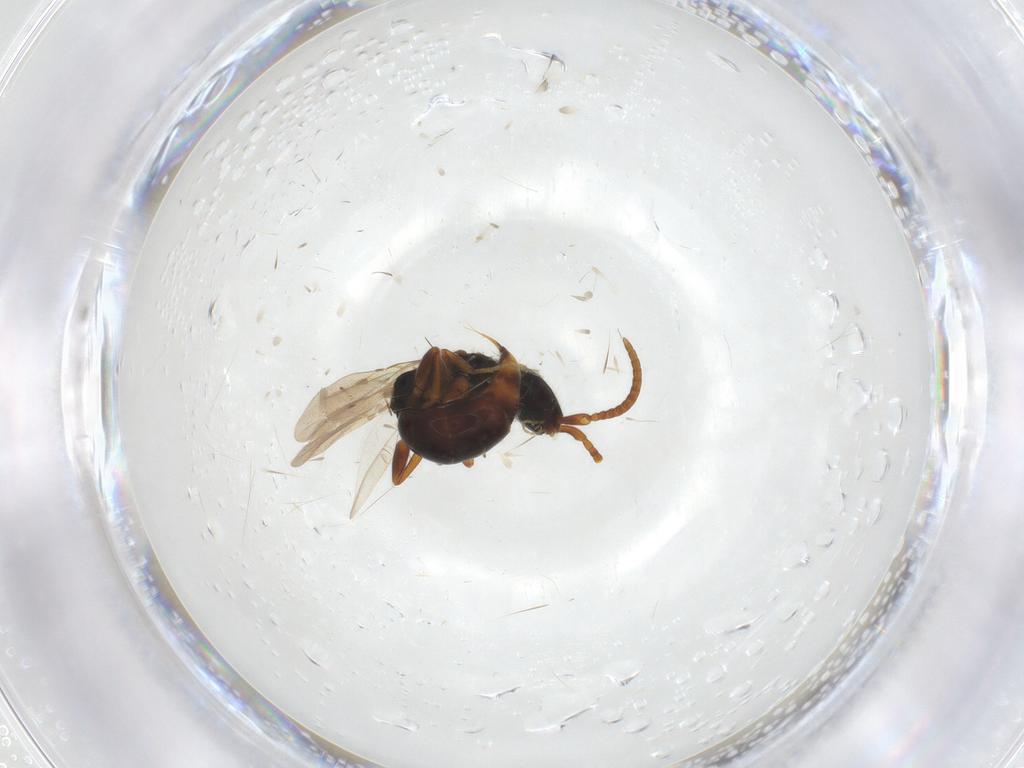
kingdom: Animalia
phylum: Arthropoda
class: Insecta
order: Hymenoptera
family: Bethylidae
